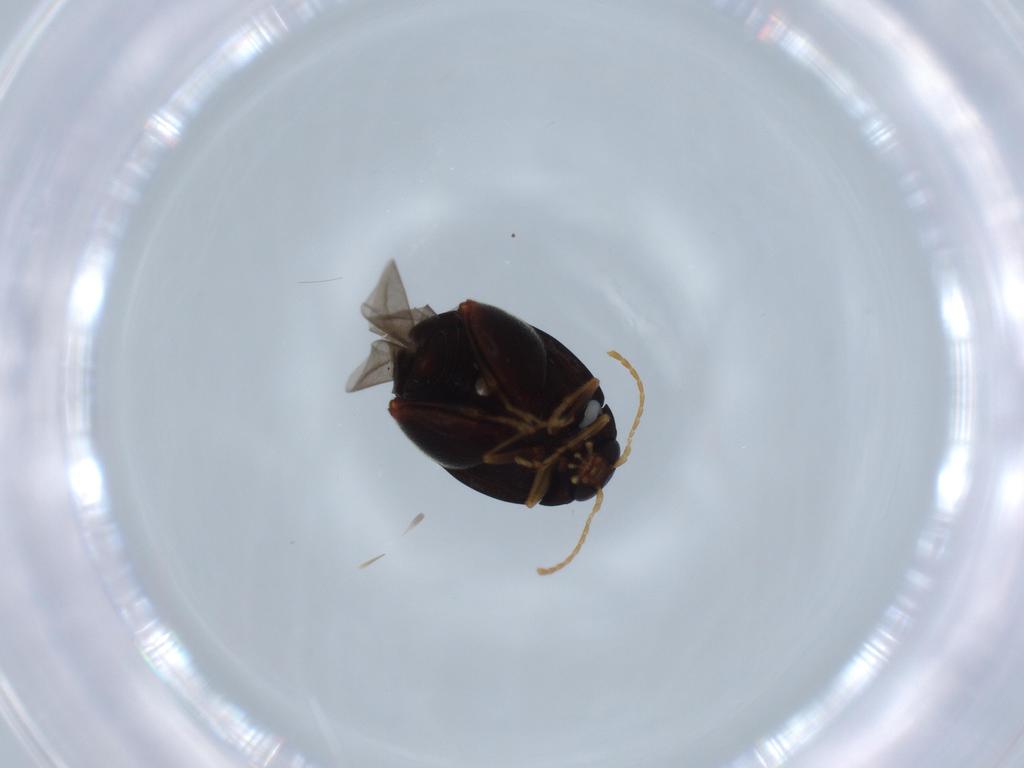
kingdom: Animalia
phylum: Arthropoda
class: Insecta
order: Coleoptera
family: Chrysomelidae
